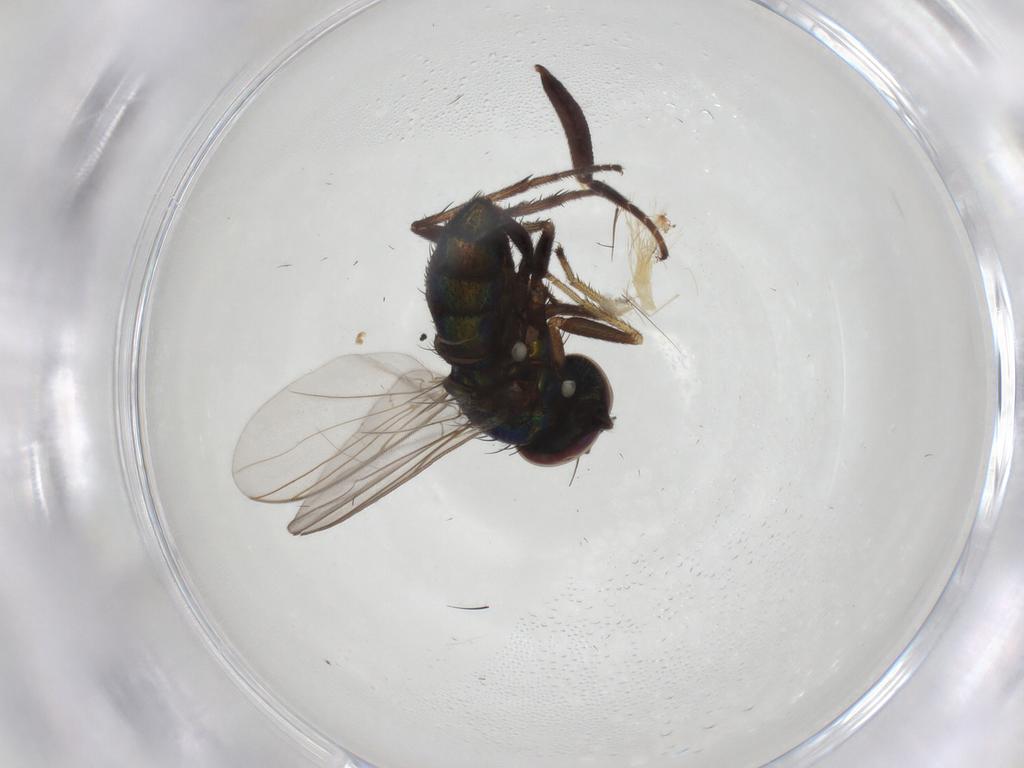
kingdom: Animalia
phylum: Arthropoda
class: Insecta
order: Diptera
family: Dolichopodidae
